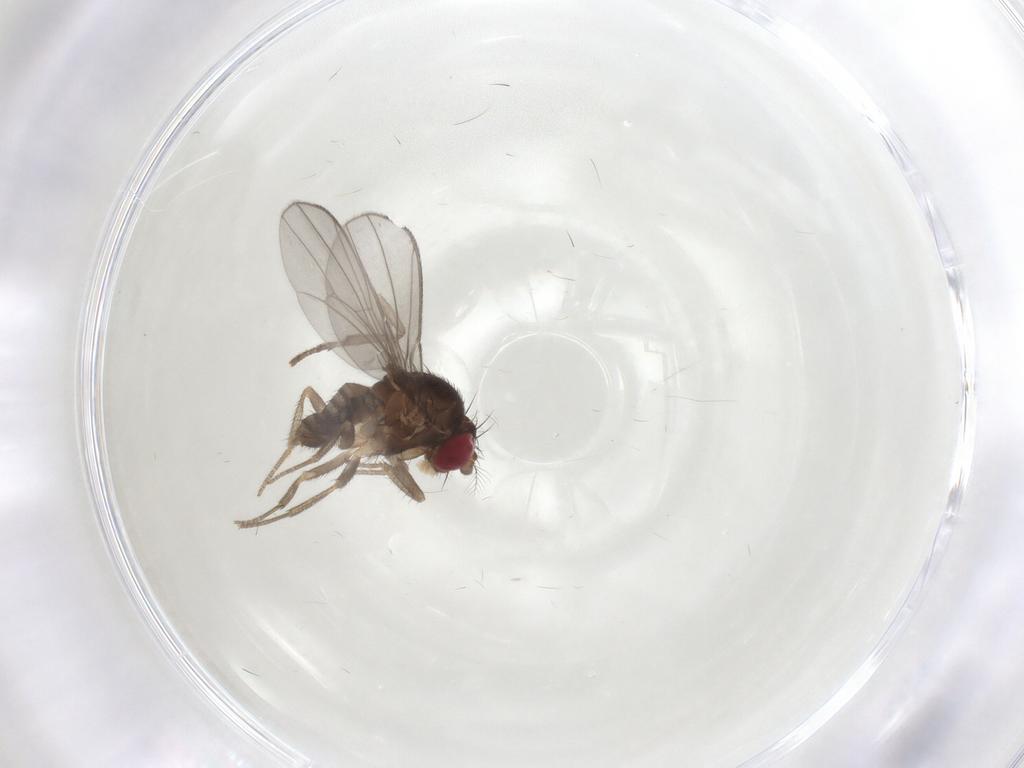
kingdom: Animalia
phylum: Arthropoda
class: Insecta
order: Diptera
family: Drosophilidae
